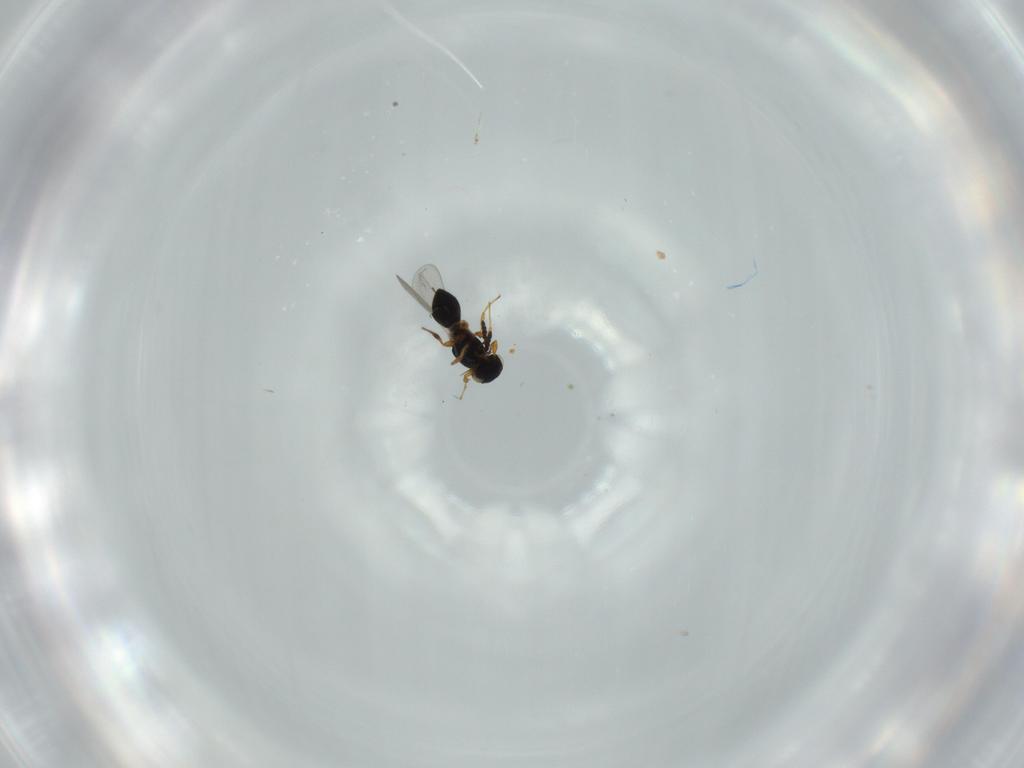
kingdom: Animalia
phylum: Arthropoda
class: Insecta
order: Hymenoptera
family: Platygastridae
